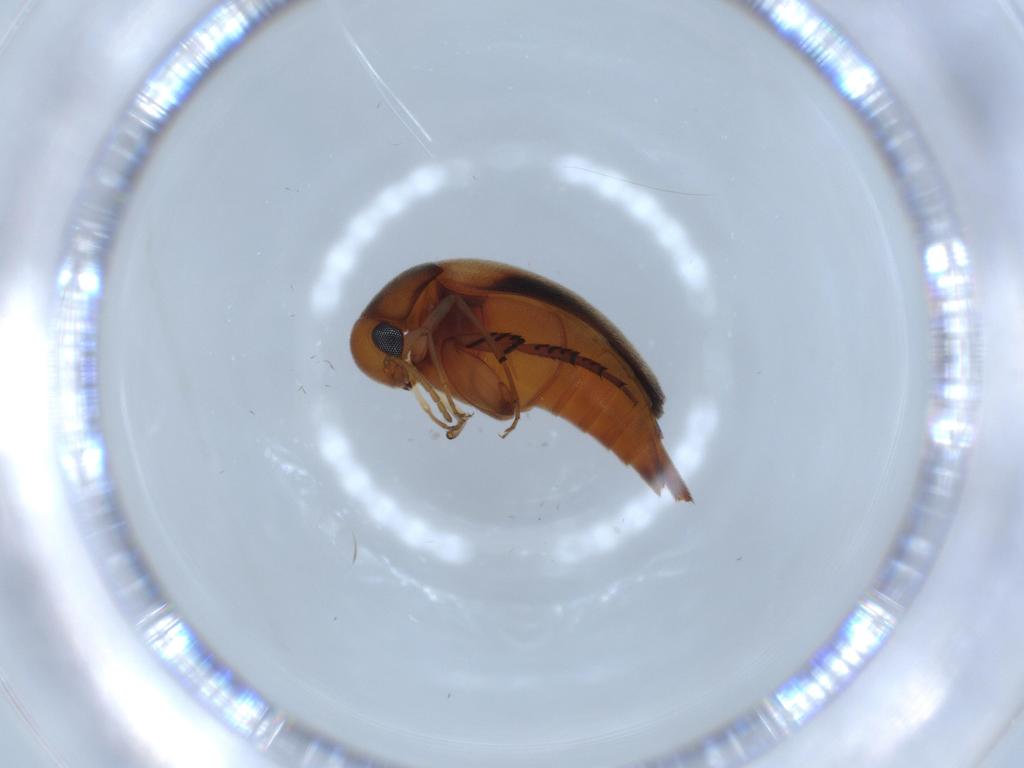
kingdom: Animalia
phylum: Arthropoda
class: Insecta
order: Coleoptera
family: Mordellidae
